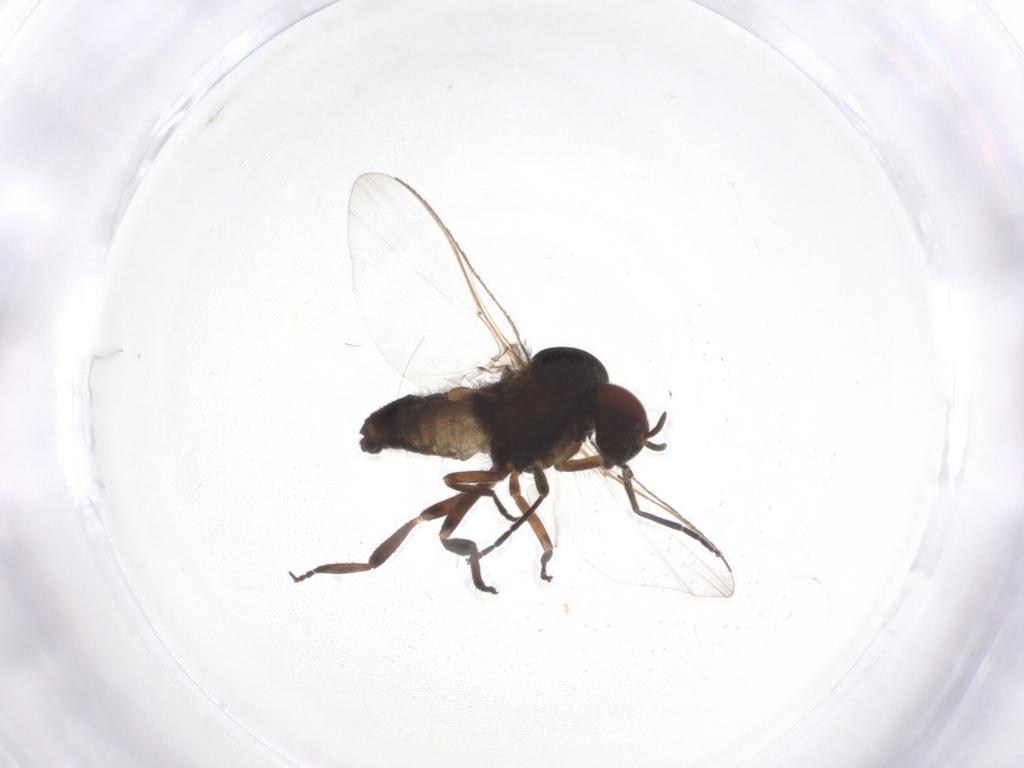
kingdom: Animalia
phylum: Arthropoda
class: Insecta
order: Diptera
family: Chironomidae
